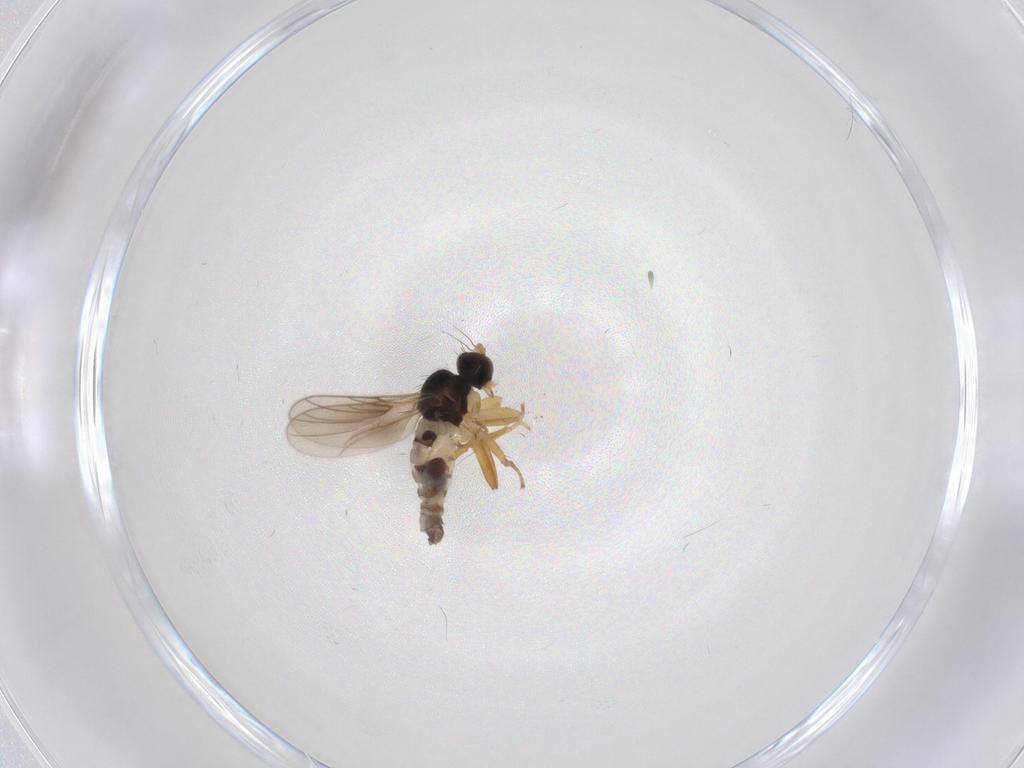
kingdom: Animalia
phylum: Arthropoda
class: Insecta
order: Diptera
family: Hybotidae
